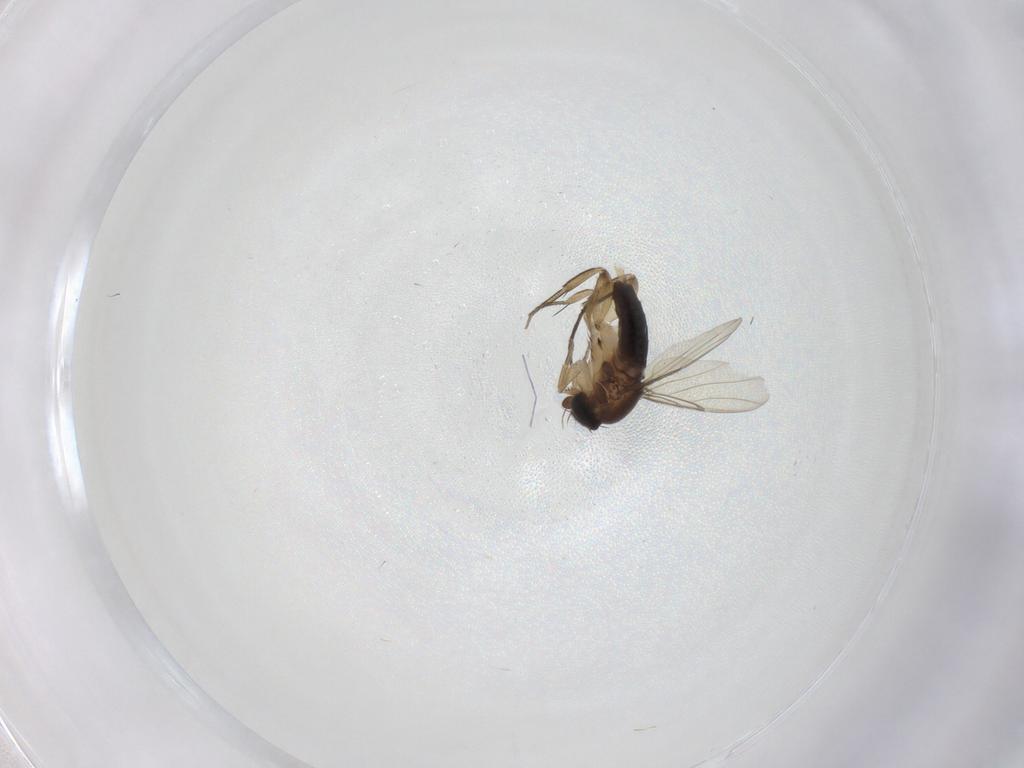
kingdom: Animalia
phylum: Arthropoda
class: Insecta
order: Diptera
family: Phoridae
